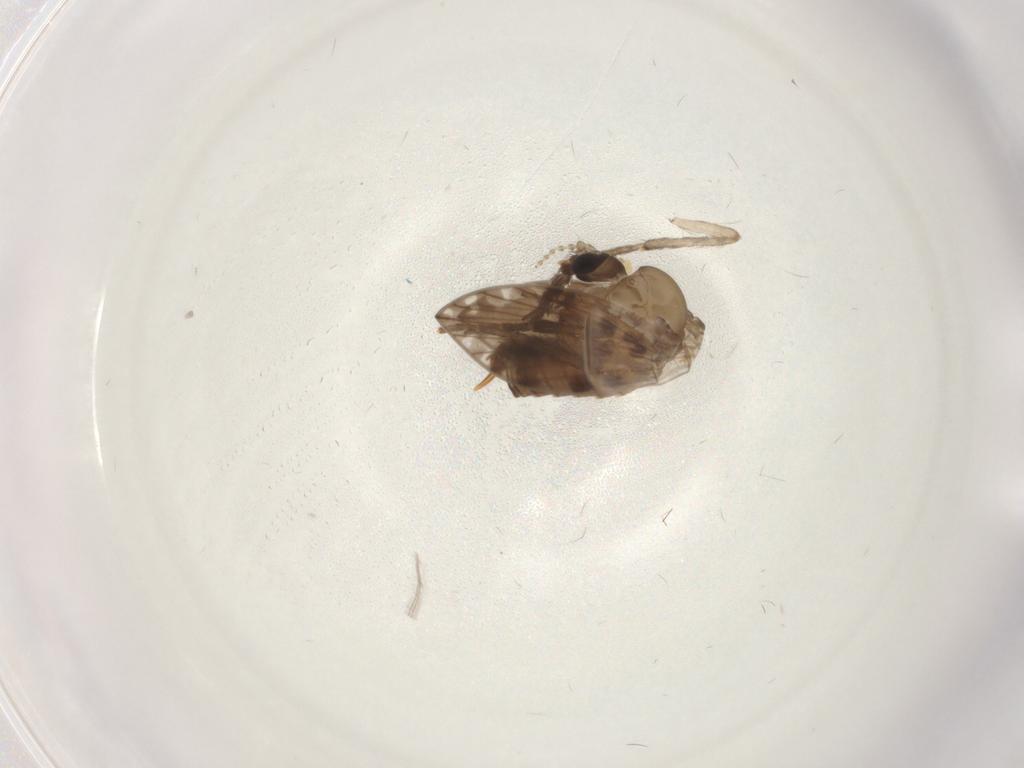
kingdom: Animalia
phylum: Arthropoda
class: Insecta
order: Diptera
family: Psychodidae
